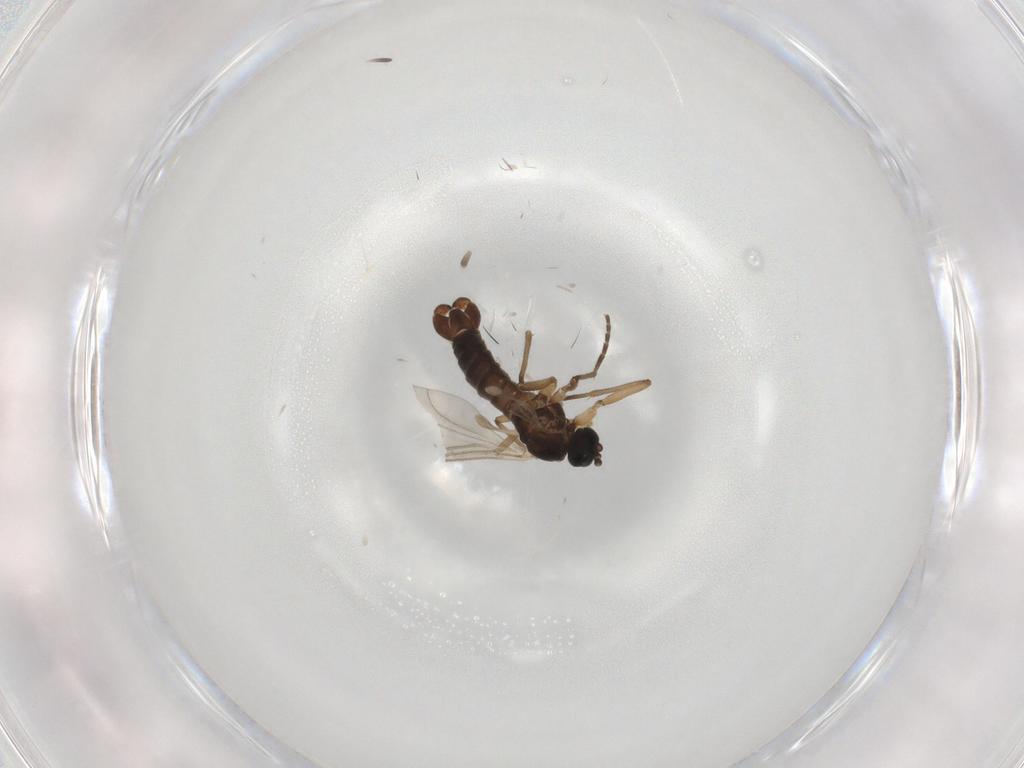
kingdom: Animalia
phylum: Arthropoda
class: Insecta
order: Diptera
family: Sciaridae
